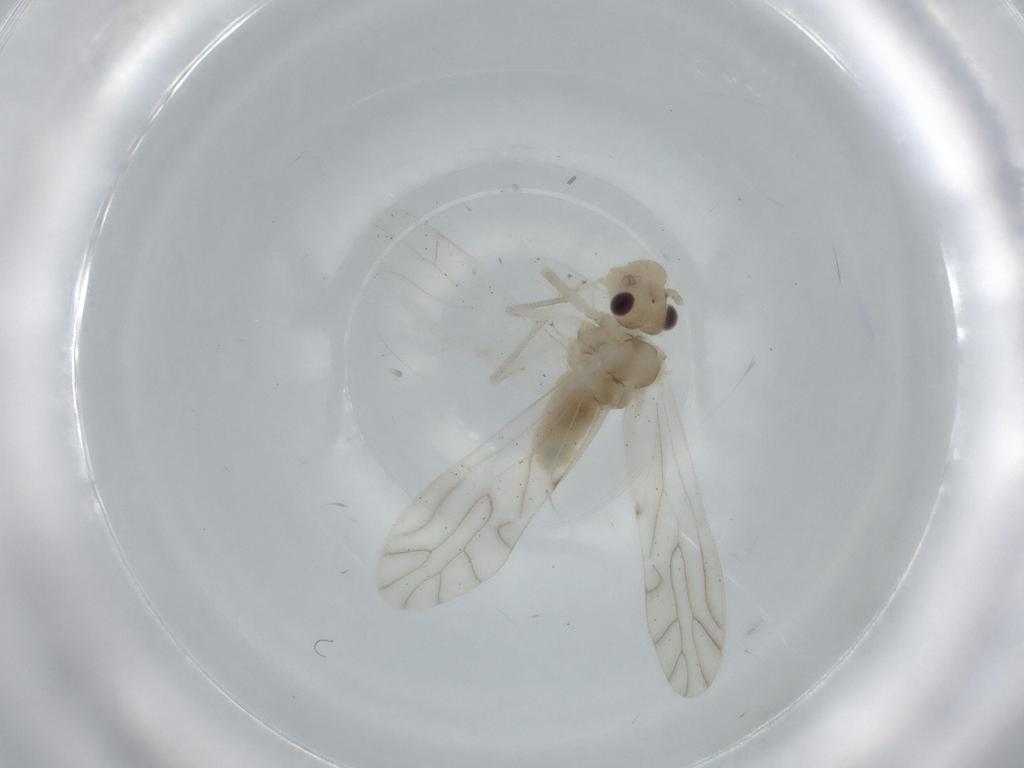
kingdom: Animalia
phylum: Arthropoda
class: Insecta
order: Psocodea
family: Caeciliusidae
